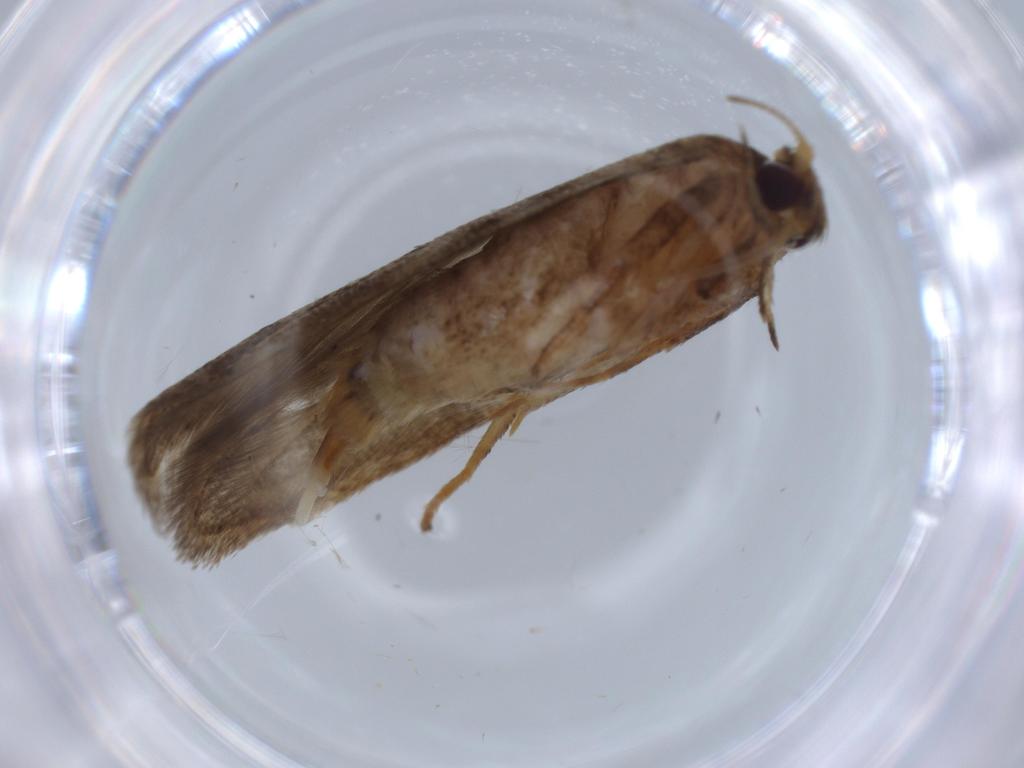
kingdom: Animalia
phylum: Arthropoda
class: Insecta
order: Lepidoptera
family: Blastobasidae
